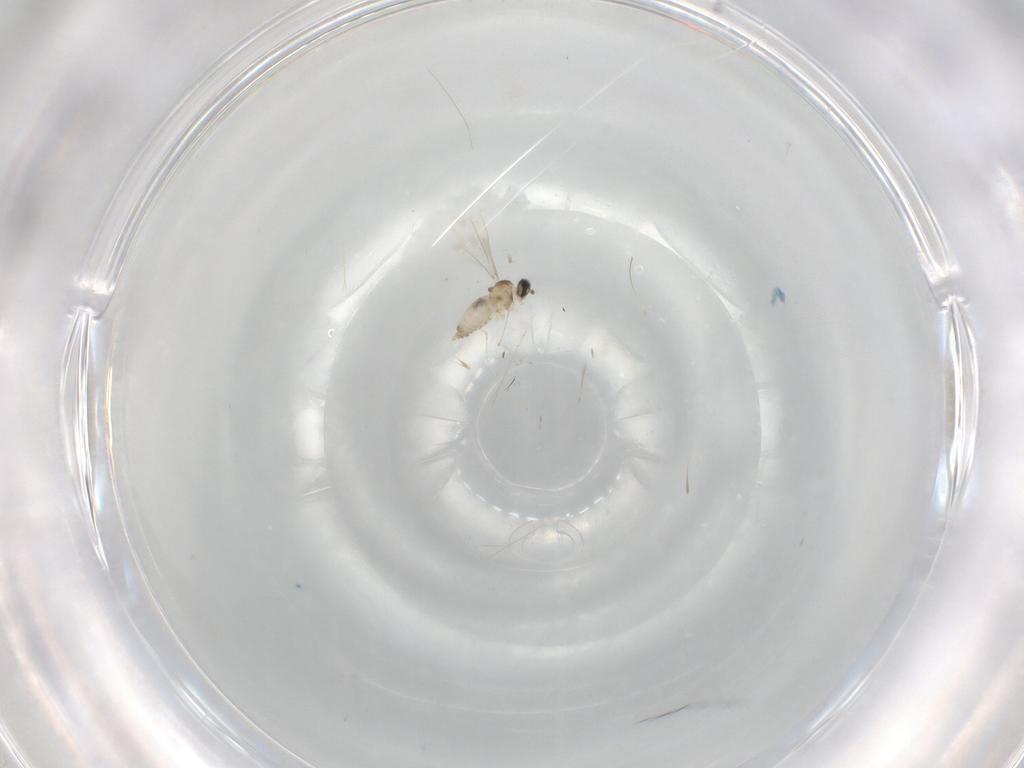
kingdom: Animalia
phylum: Arthropoda
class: Insecta
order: Diptera
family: Cecidomyiidae
